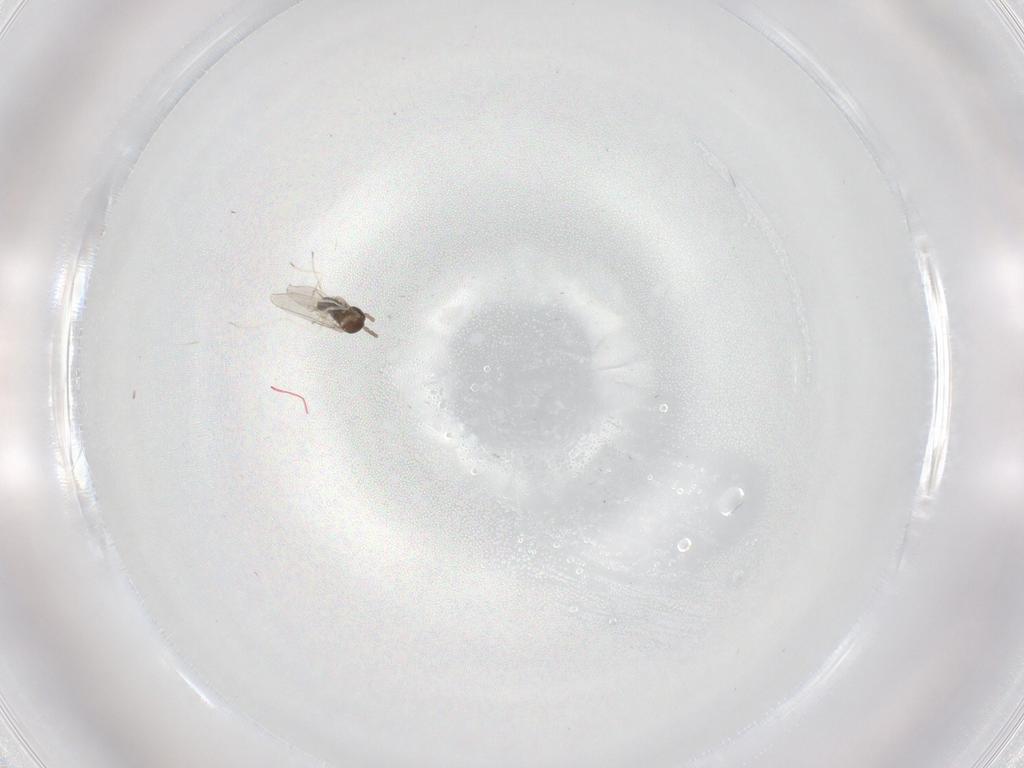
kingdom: Animalia
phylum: Arthropoda
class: Insecta
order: Diptera
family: Cecidomyiidae
